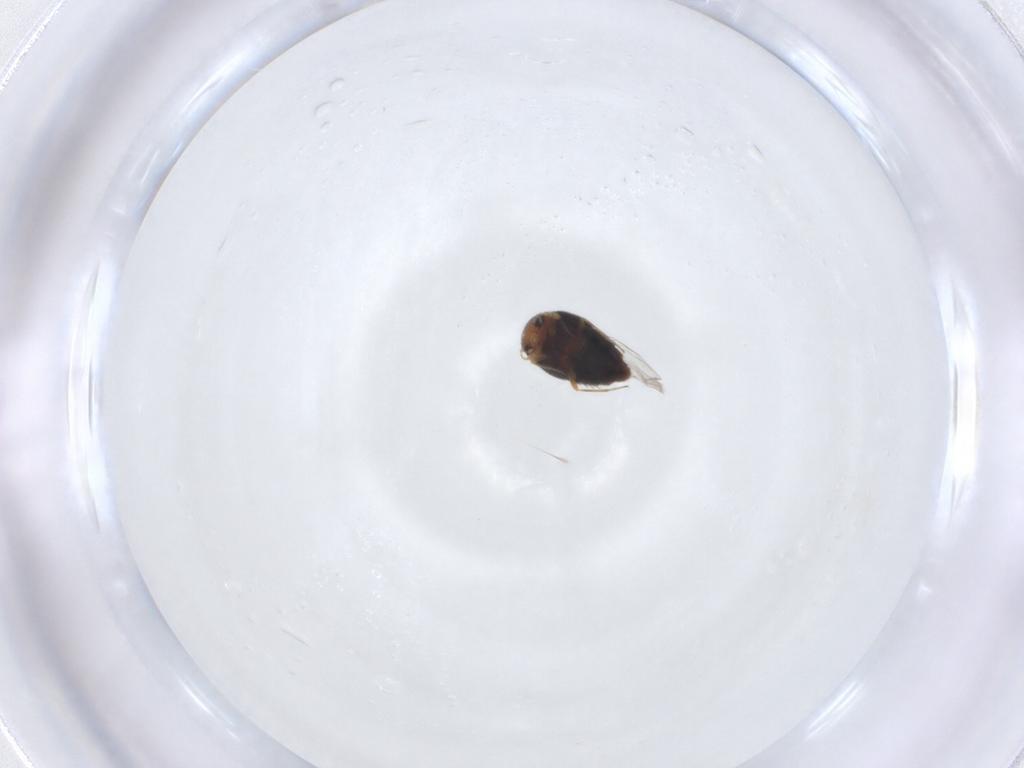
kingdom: Animalia
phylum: Arthropoda
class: Insecta
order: Coleoptera
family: Staphylinidae
